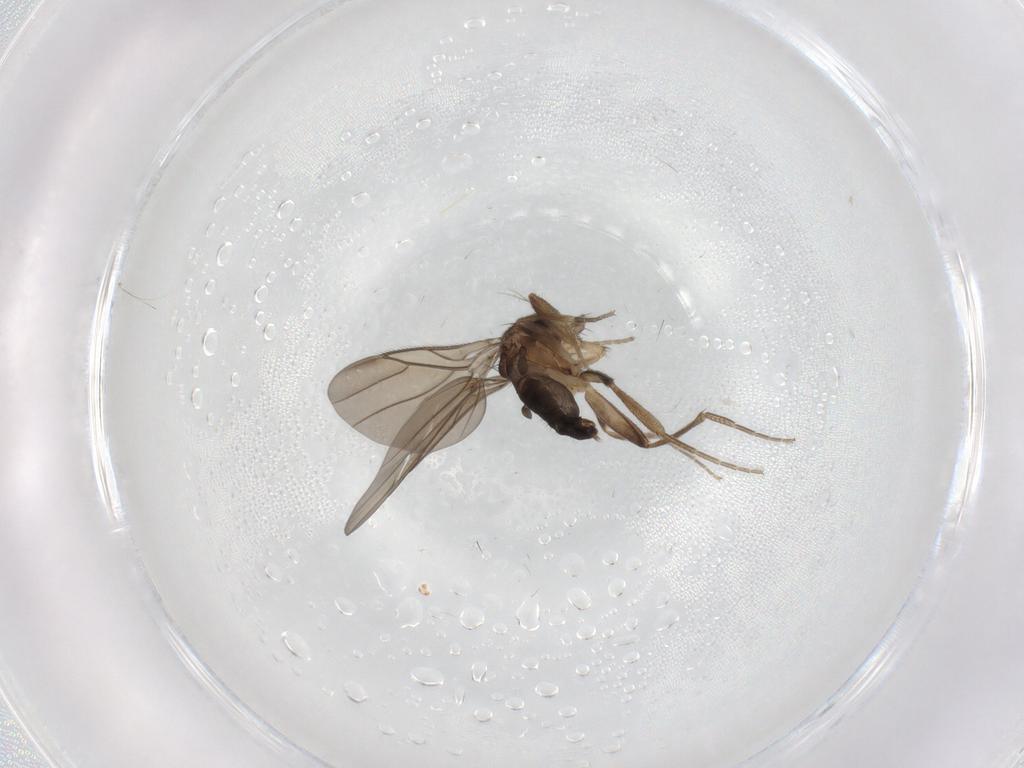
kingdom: Animalia
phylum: Arthropoda
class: Insecta
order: Diptera
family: Phoridae
